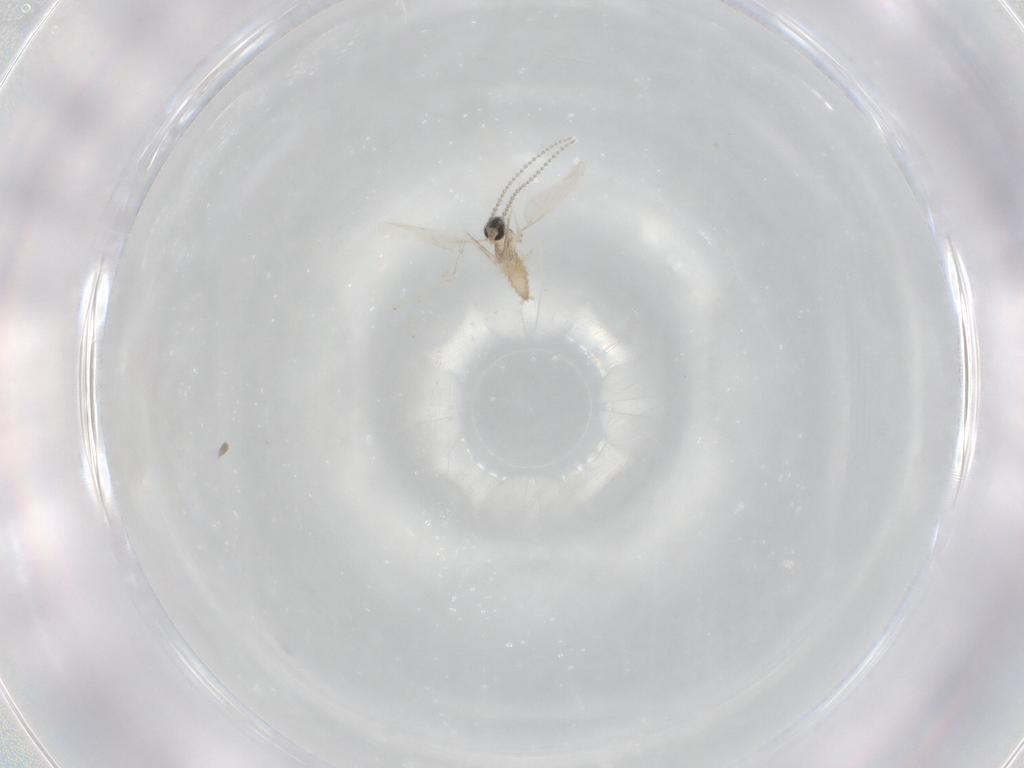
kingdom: Animalia
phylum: Arthropoda
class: Insecta
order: Diptera
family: Cecidomyiidae
